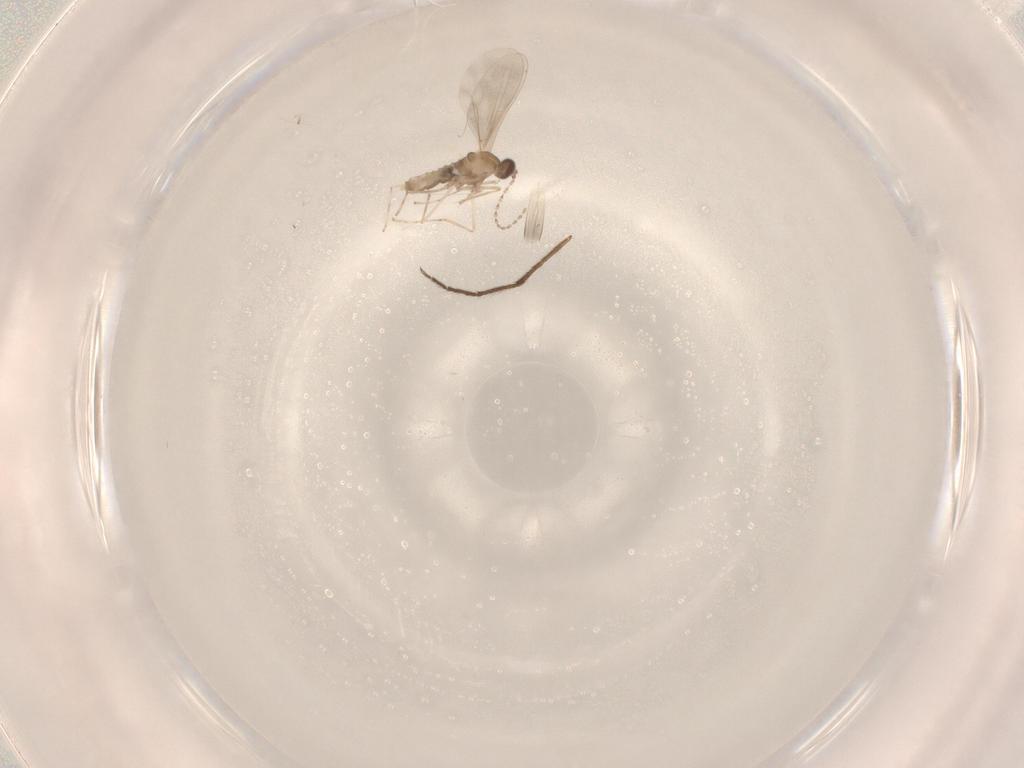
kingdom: Animalia
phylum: Arthropoda
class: Insecta
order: Diptera
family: Chironomidae
